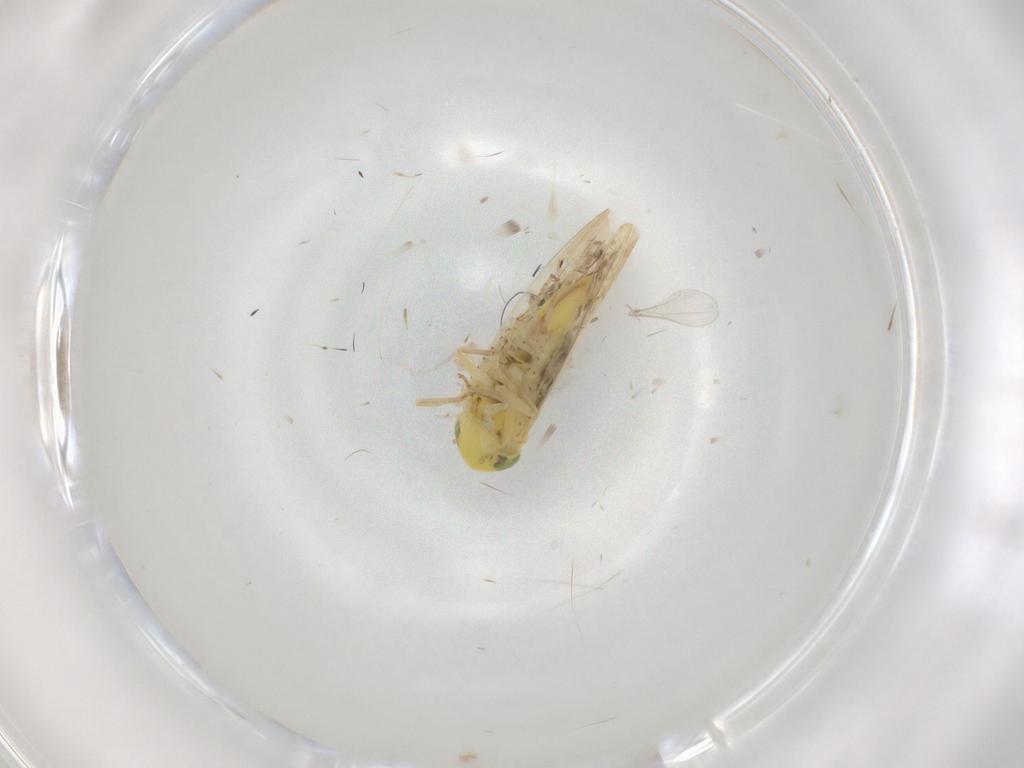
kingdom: Animalia
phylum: Arthropoda
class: Insecta
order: Hemiptera
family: Cicadellidae
